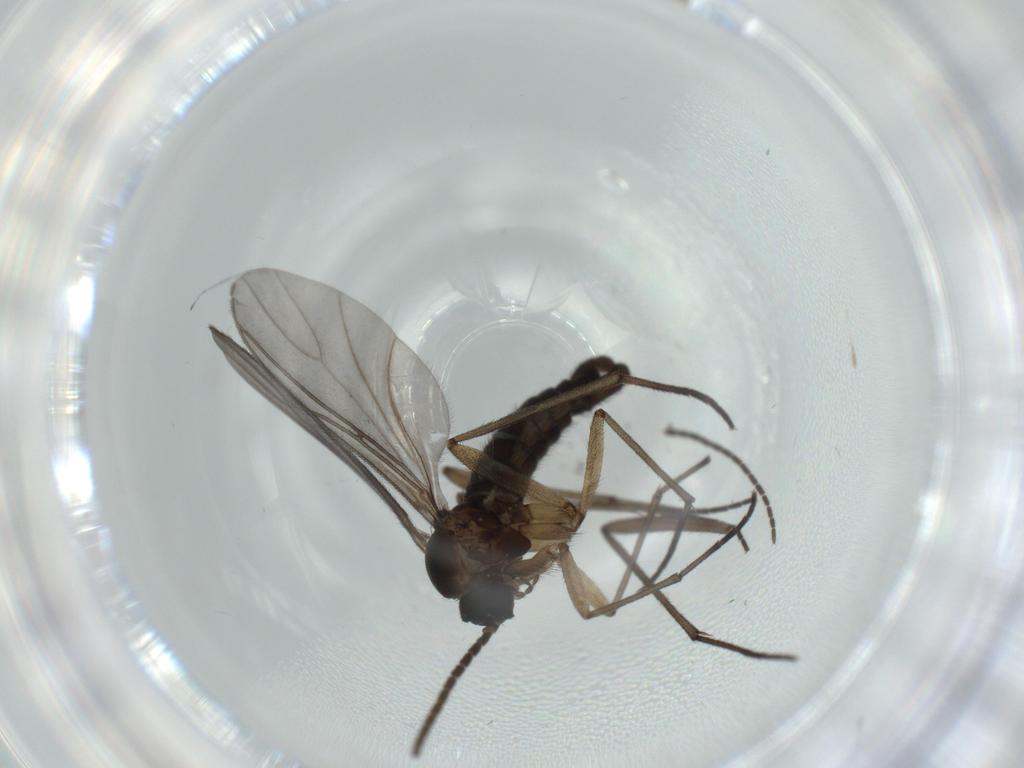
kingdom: Animalia
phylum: Arthropoda
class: Insecta
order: Diptera
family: Sciaridae
